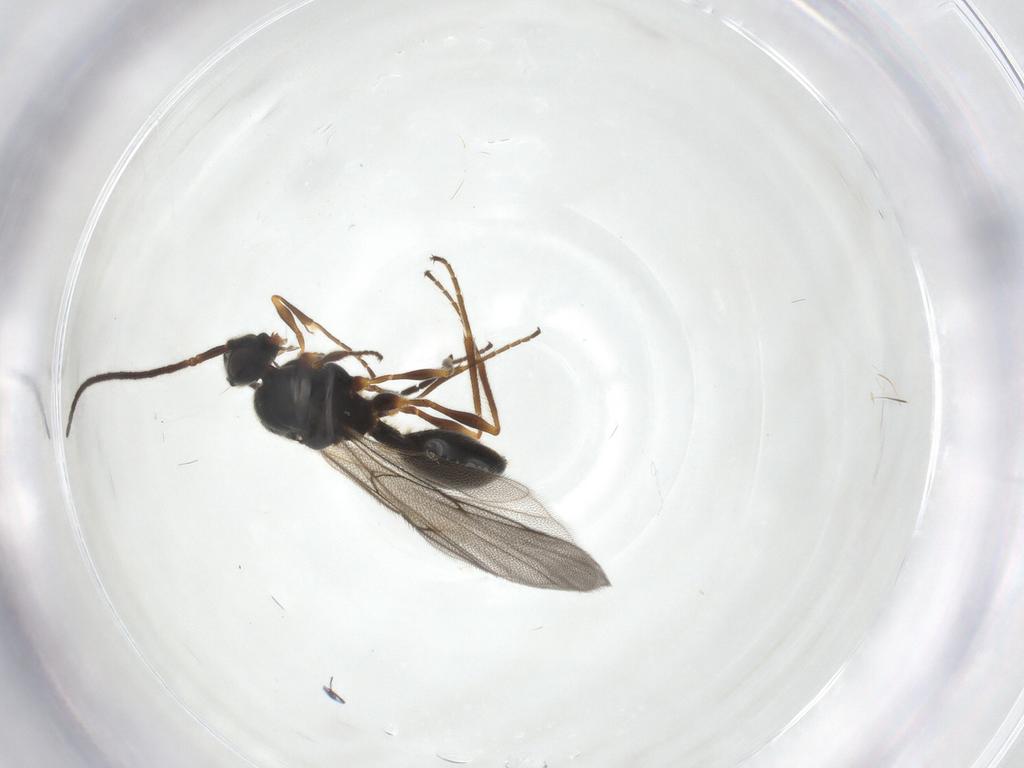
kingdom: Animalia
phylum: Arthropoda
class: Insecta
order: Hymenoptera
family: Diapriidae
